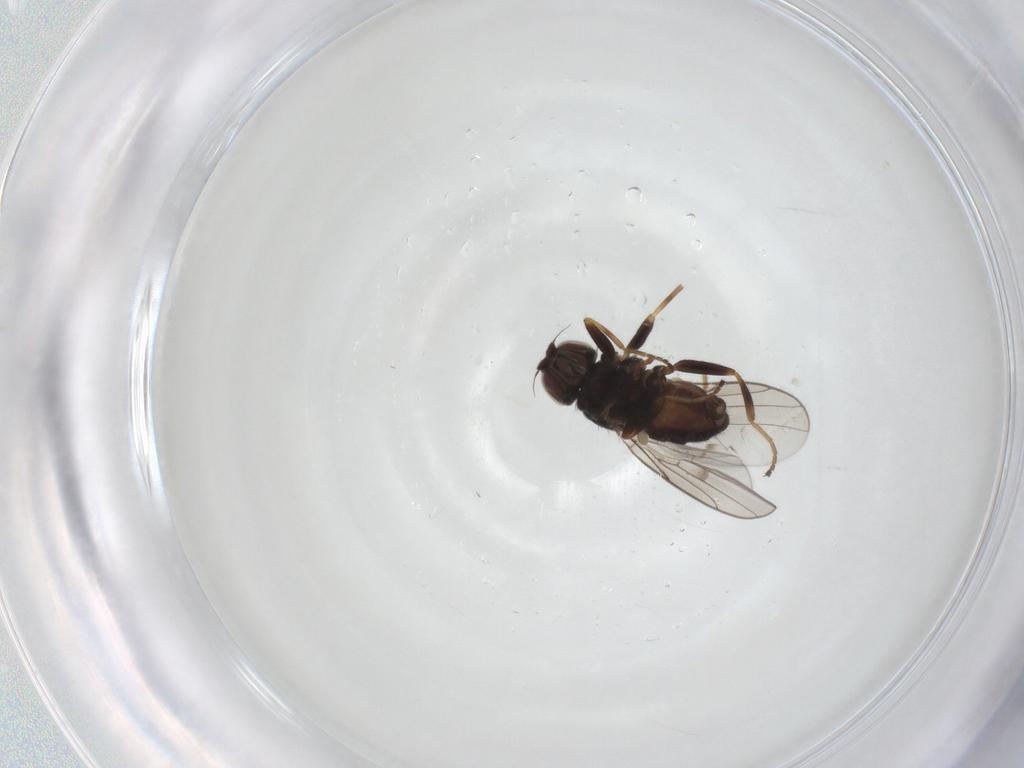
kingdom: Animalia
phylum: Arthropoda
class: Insecta
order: Diptera
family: Chloropidae
